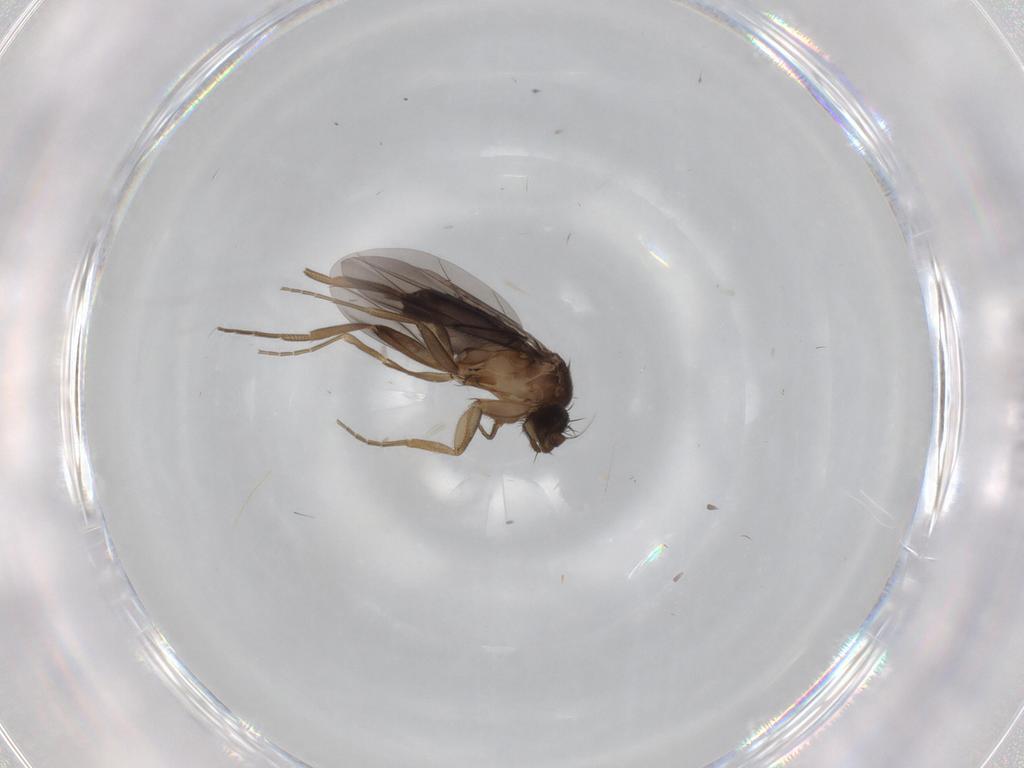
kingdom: Animalia
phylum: Arthropoda
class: Insecta
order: Diptera
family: Phoridae
